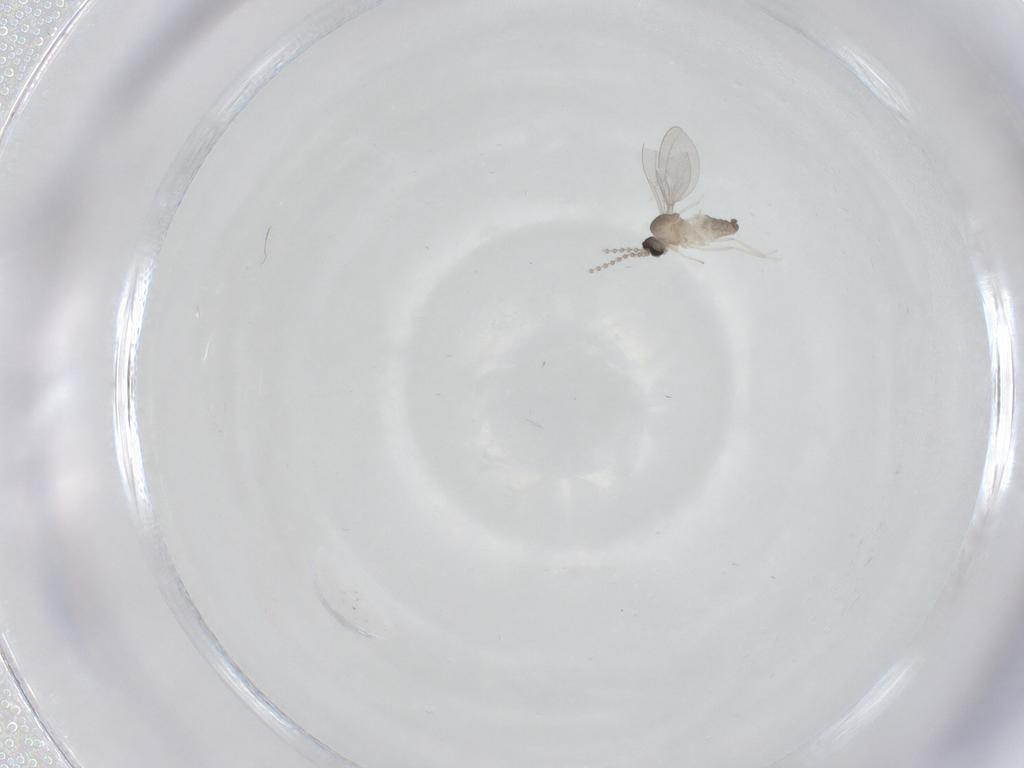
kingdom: Animalia
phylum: Arthropoda
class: Insecta
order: Diptera
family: Cecidomyiidae
